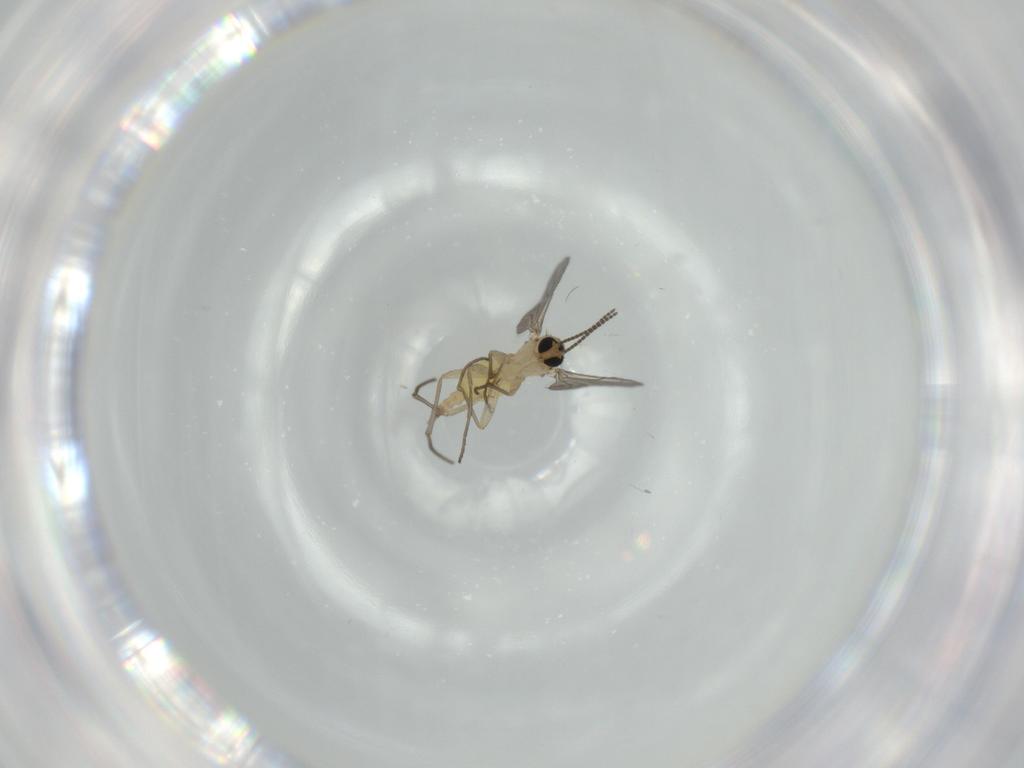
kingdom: Animalia
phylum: Arthropoda
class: Insecta
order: Diptera
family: Sciaridae
